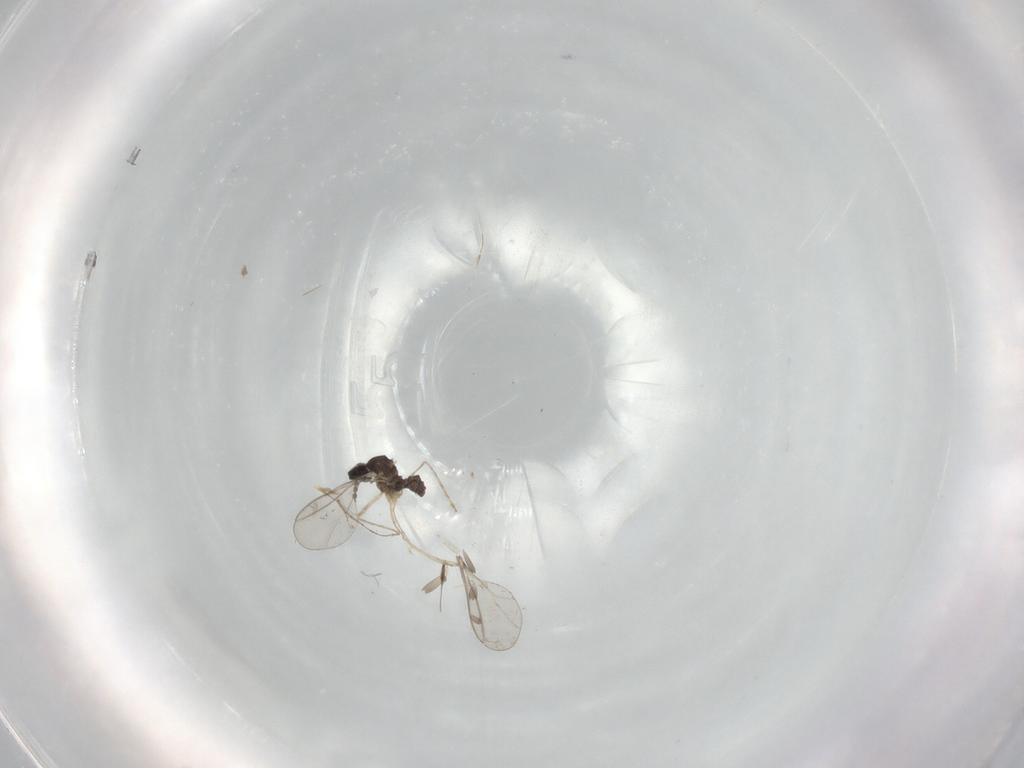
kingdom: Animalia
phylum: Arthropoda
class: Insecta
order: Diptera
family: Cecidomyiidae
